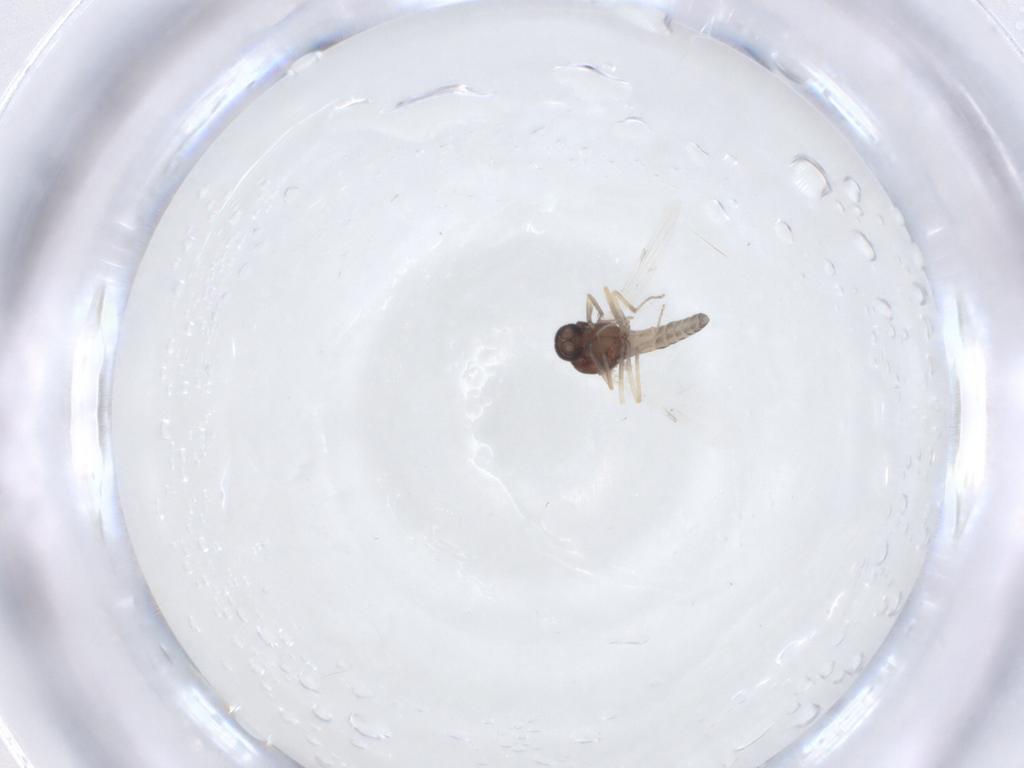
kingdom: Animalia
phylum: Arthropoda
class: Insecta
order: Diptera
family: Ceratopogonidae
